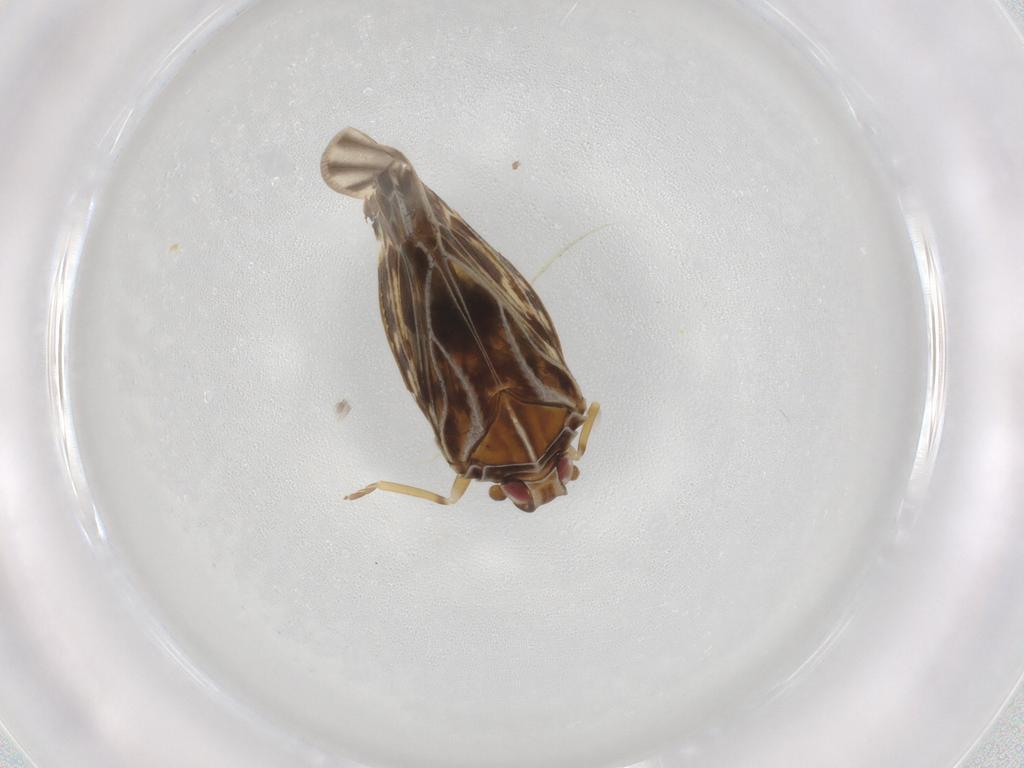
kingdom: Animalia
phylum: Arthropoda
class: Insecta
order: Hemiptera
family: Meenoplidae
